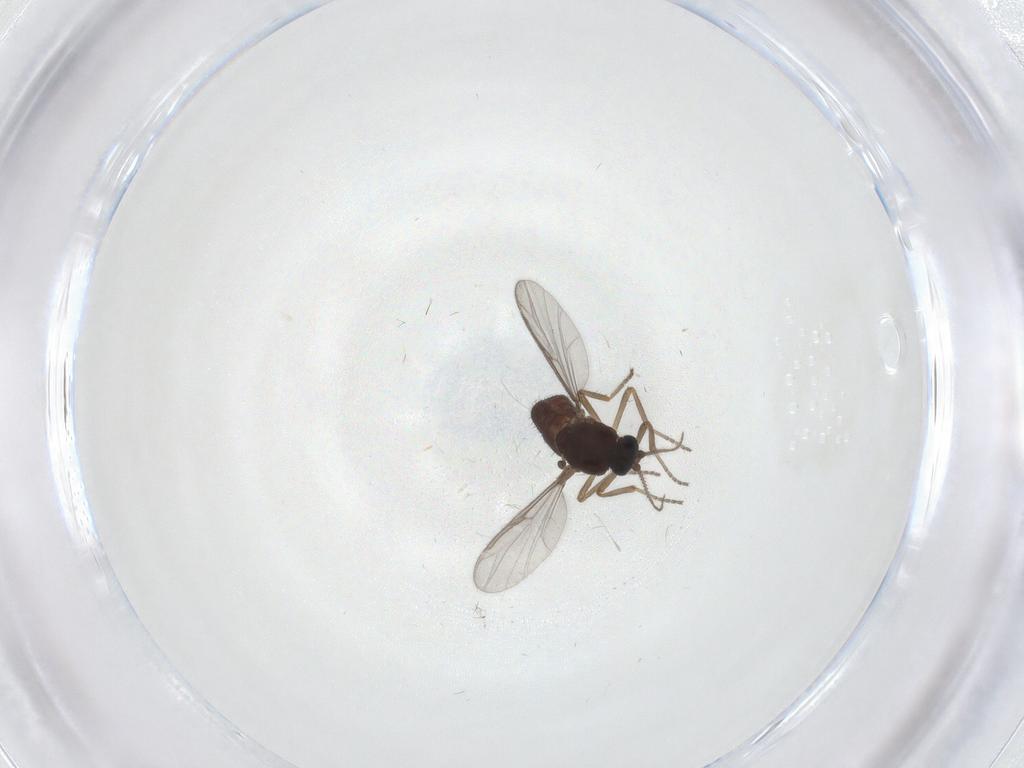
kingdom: Animalia
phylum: Arthropoda
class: Insecta
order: Diptera
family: Ceratopogonidae
